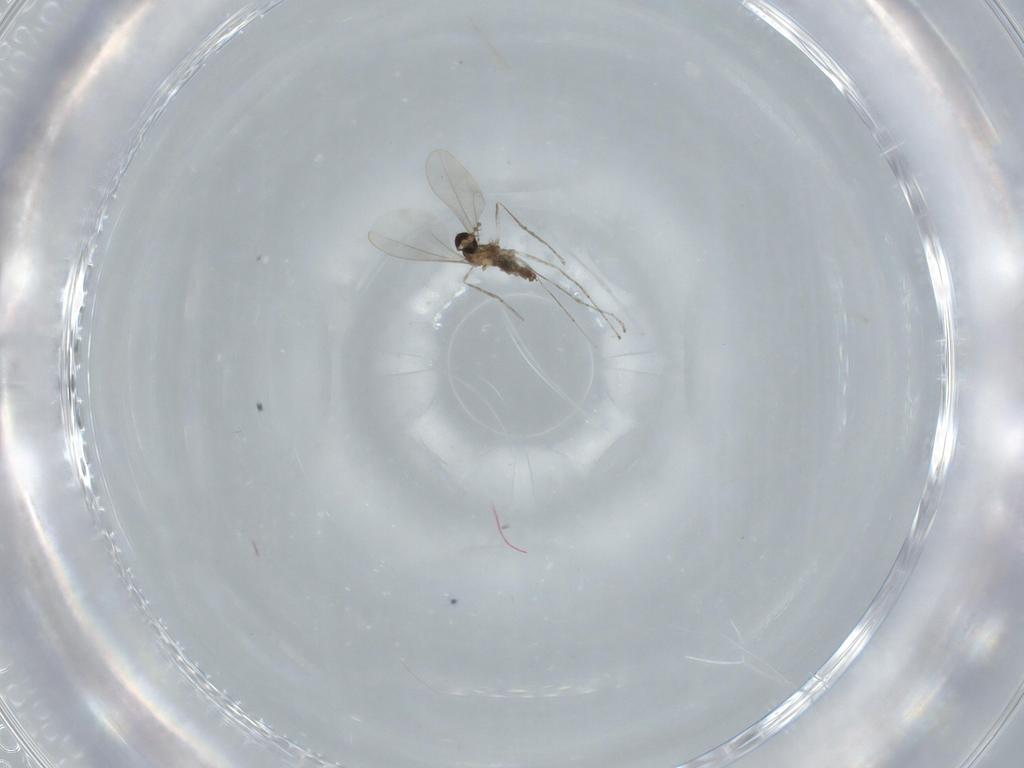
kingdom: Animalia
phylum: Arthropoda
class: Insecta
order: Diptera
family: Cecidomyiidae
